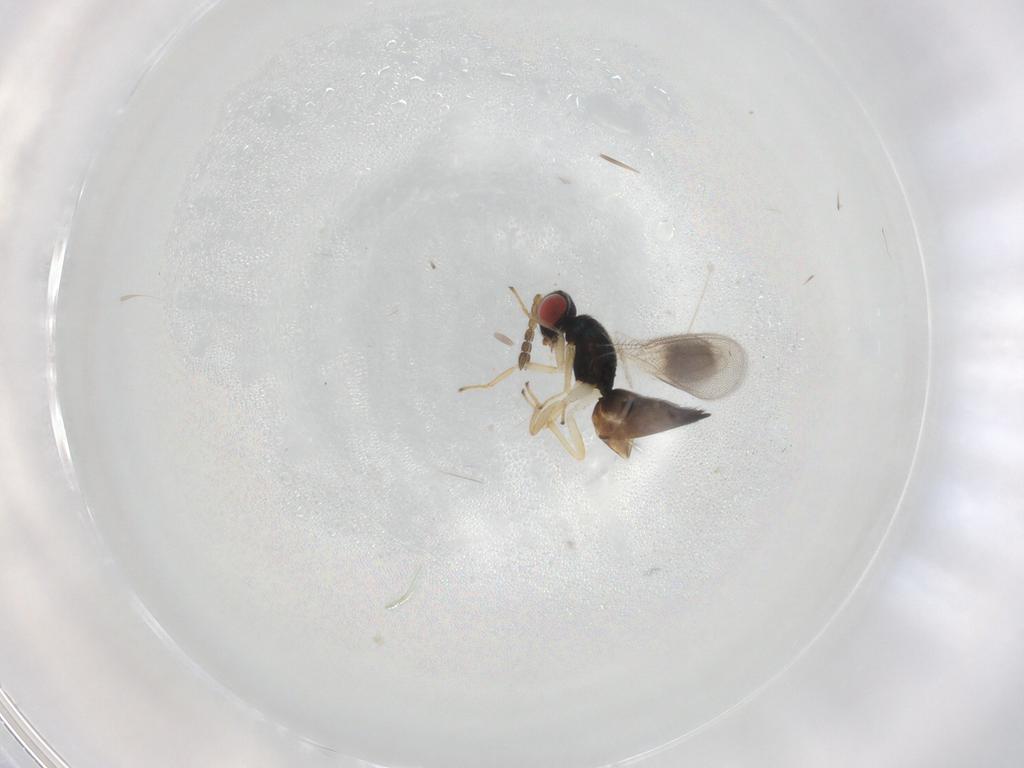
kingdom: Animalia
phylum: Arthropoda
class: Insecta
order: Hymenoptera
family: Eulophidae
